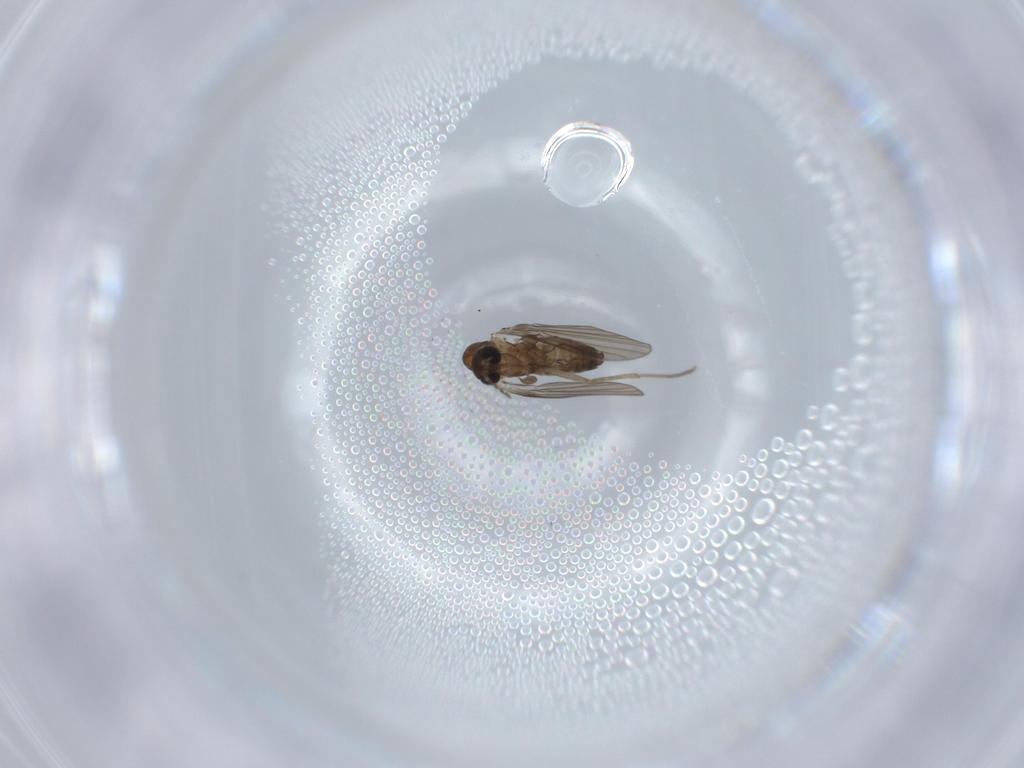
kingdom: Animalia
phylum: Arthropoda
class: Insecta
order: Diptera
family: Psychodidae
